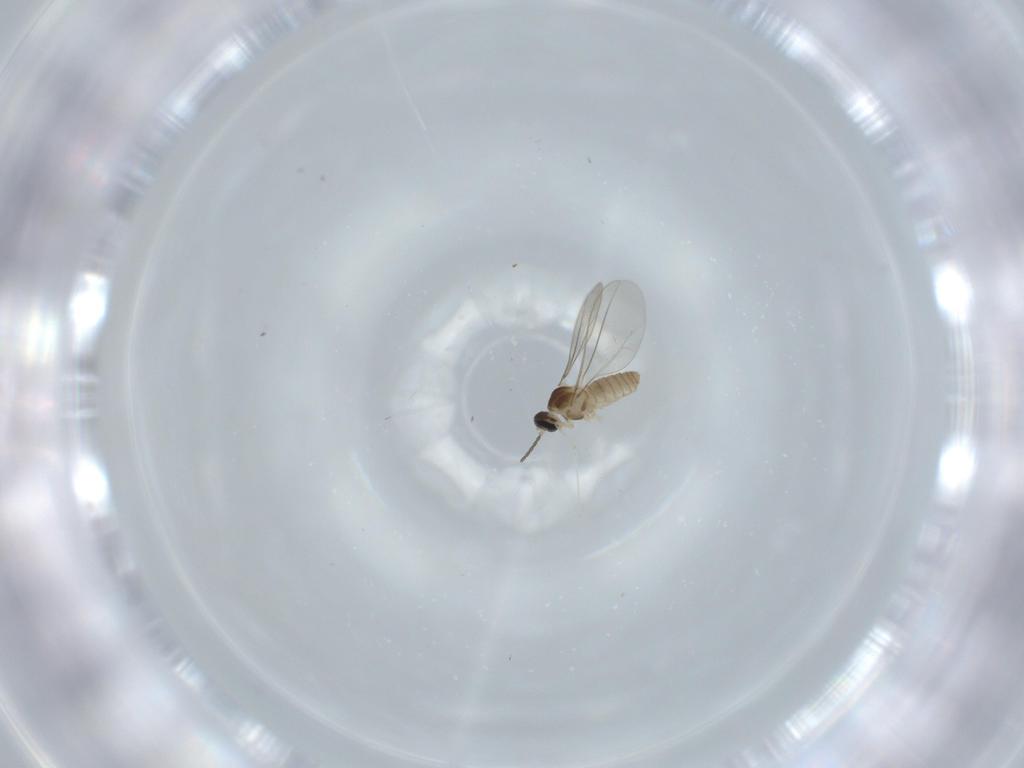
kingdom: Animalia
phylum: Arthropoda
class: Insecta
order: Diptera
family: Cecidomyiidae
